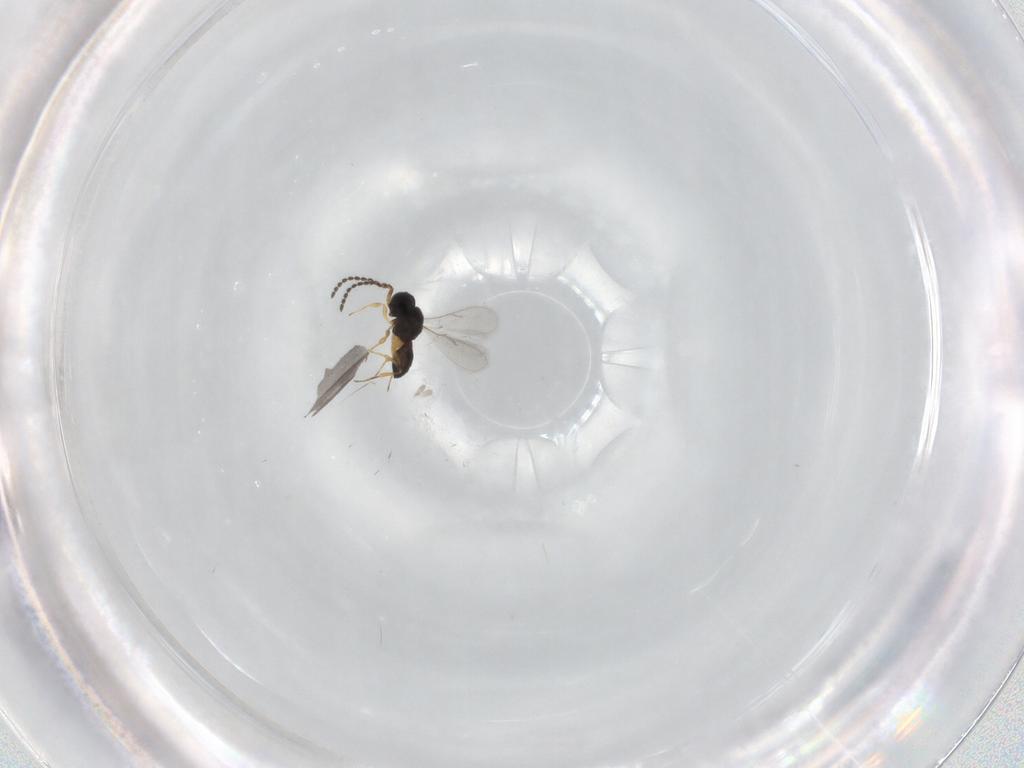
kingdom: Animalia
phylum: Arthropoda
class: Insecta
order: Hymenoptera
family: Scelionidae
